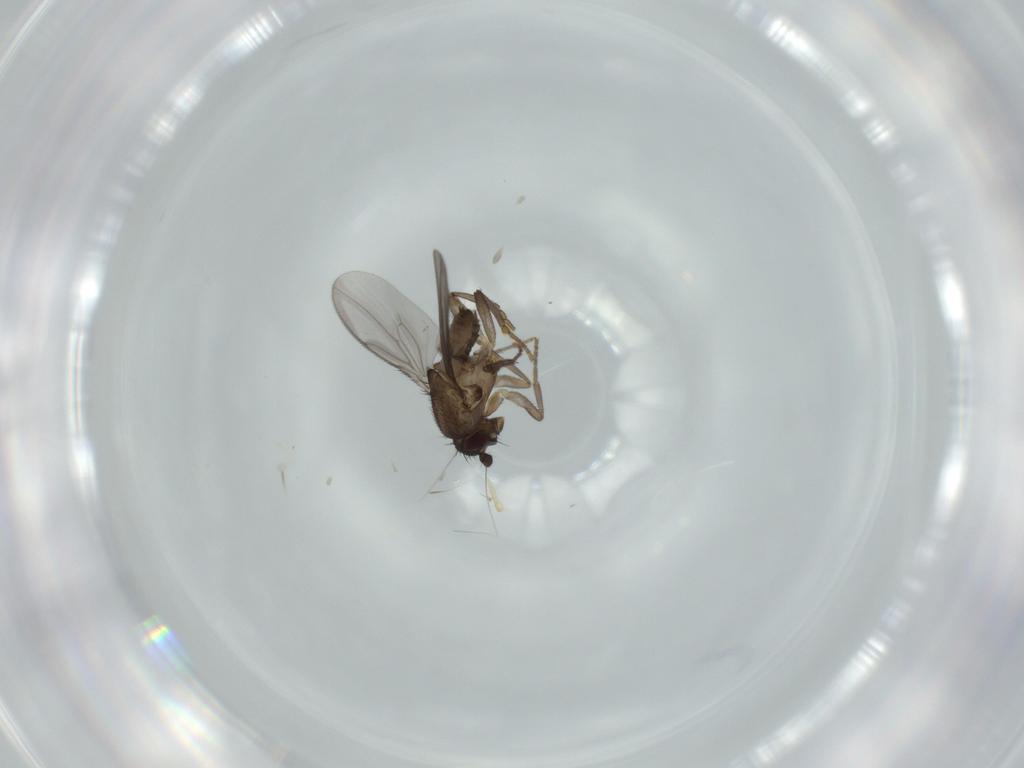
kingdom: Animalia
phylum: Arthropoda
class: Insecta
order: Diptera
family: Sphaeroceridae
